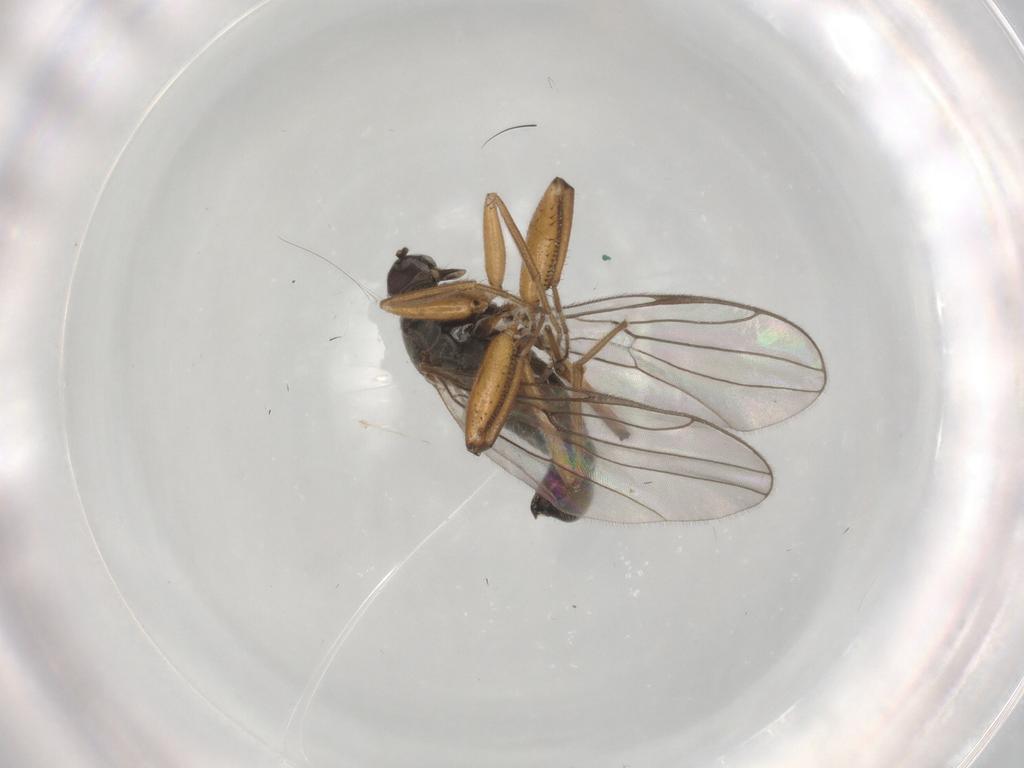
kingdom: Animalia
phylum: Arthropoda
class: Insecta
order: Diptera
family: Hybotidae
